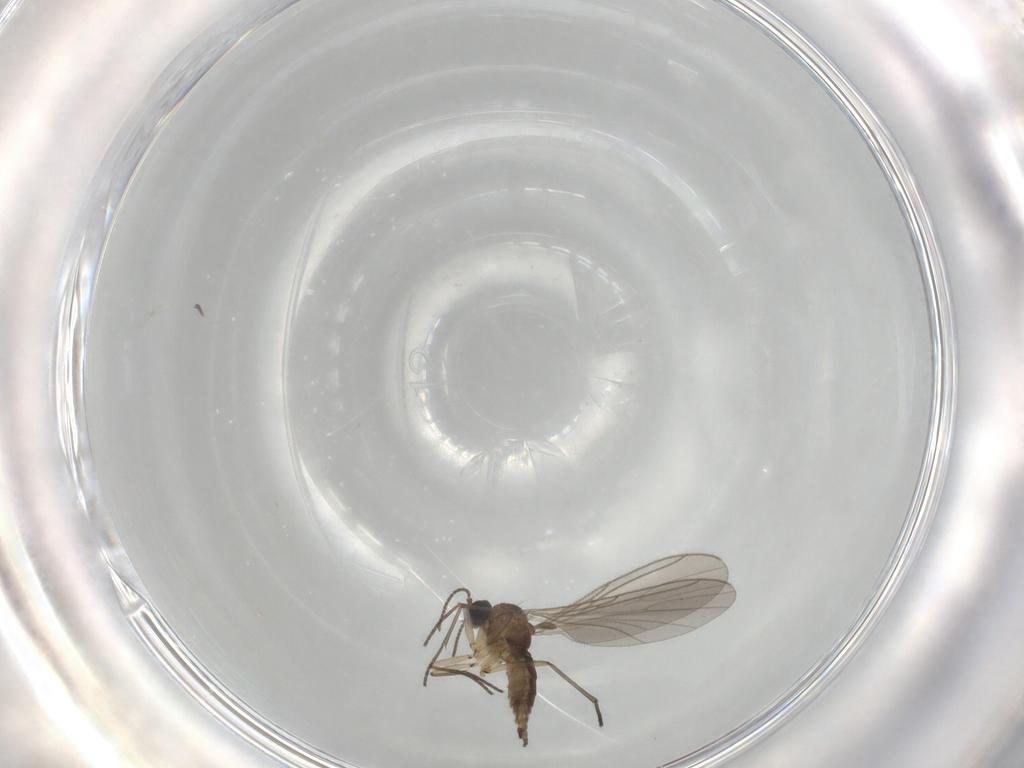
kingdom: Animalia
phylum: Arthropoda
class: Insecta
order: Diptera
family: Sciaridae
